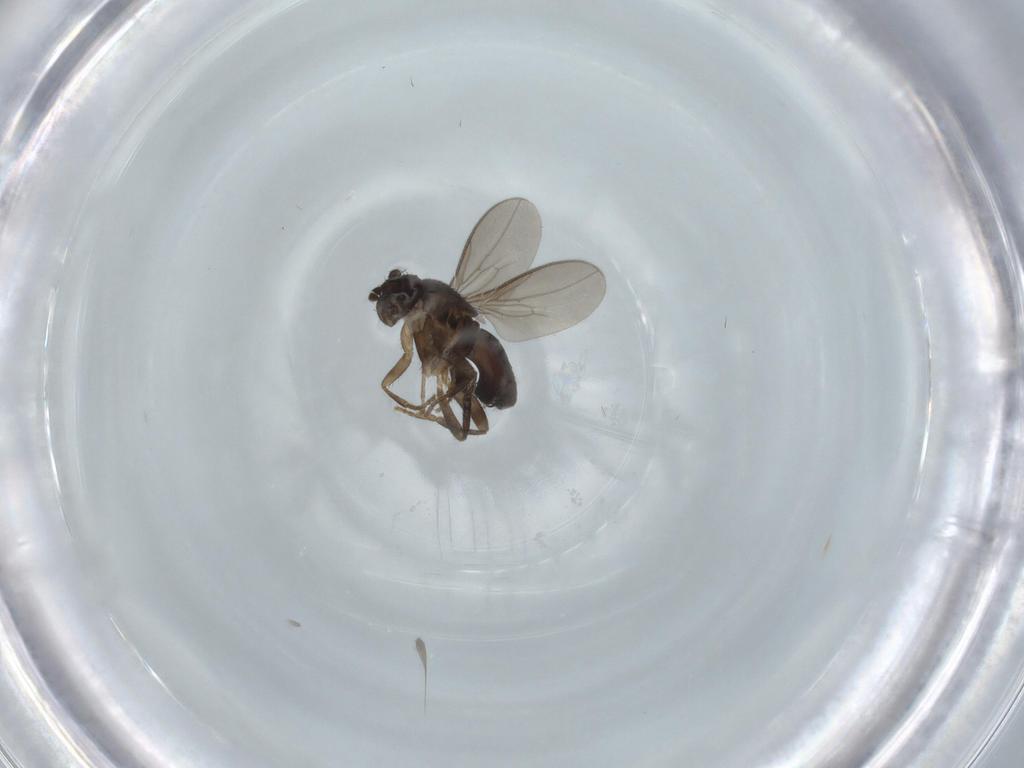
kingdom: Animalia
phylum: Arthropoda
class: Insecta
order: Diptera
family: Sphaeroceridae
